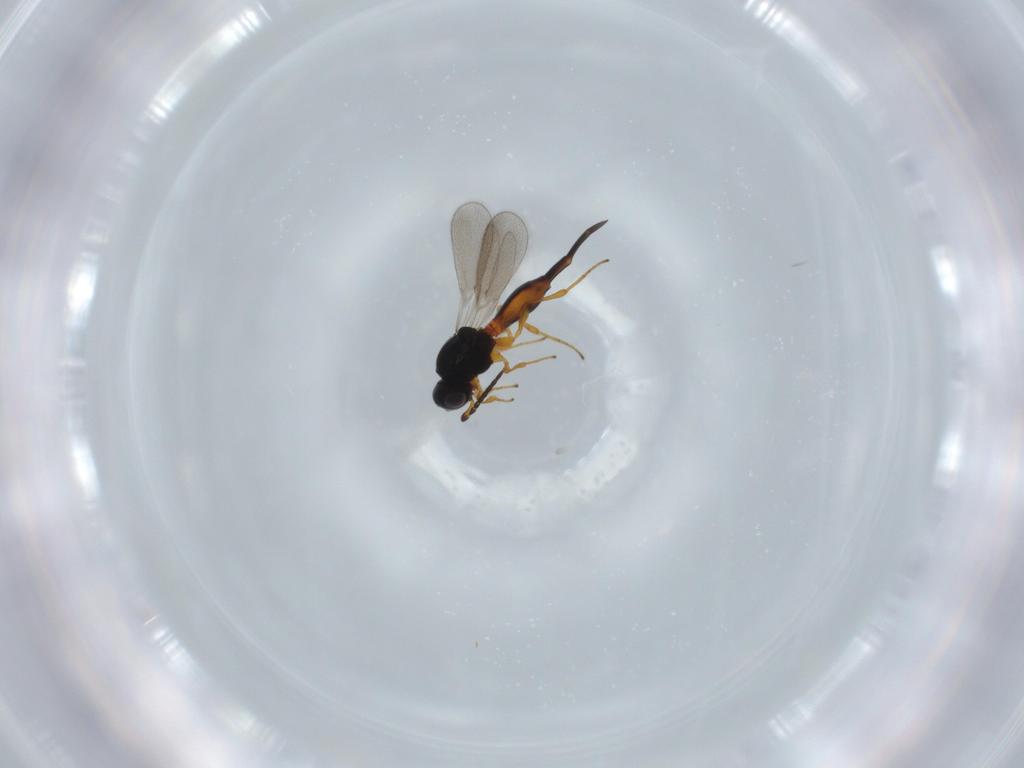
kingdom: Animalia
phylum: Arthropoda
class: Insecta
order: Hymenoptera
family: Platygastridae
